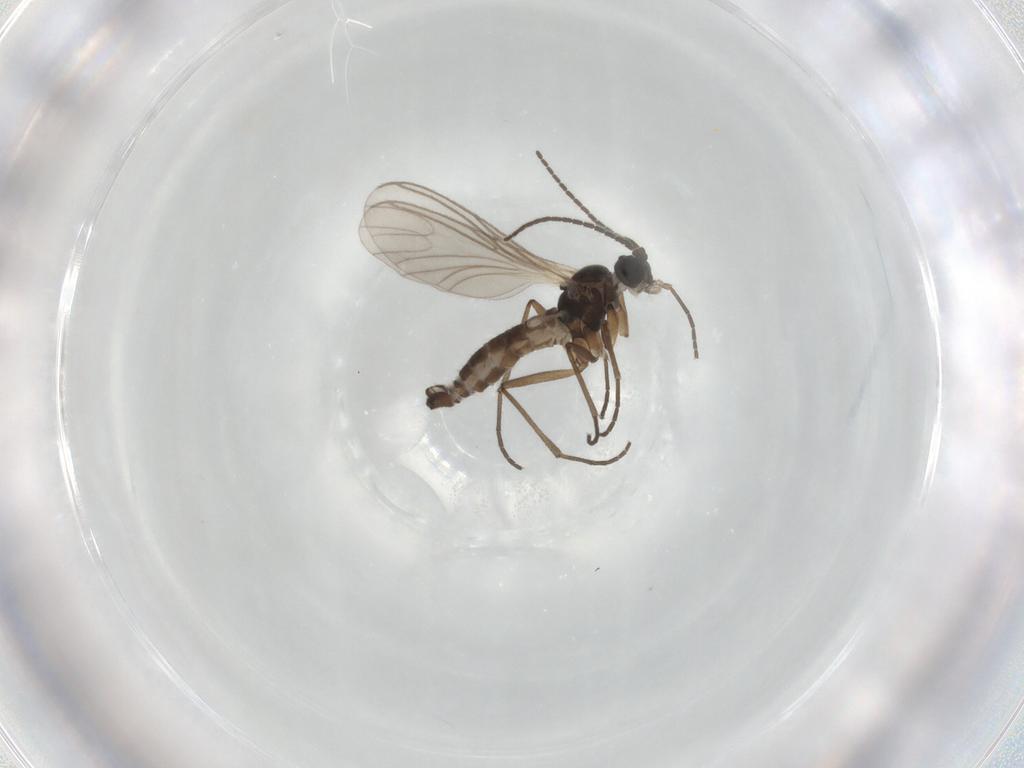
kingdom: Animalia
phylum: Arthropoda
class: Insecta
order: Diptera
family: Sciaridae
